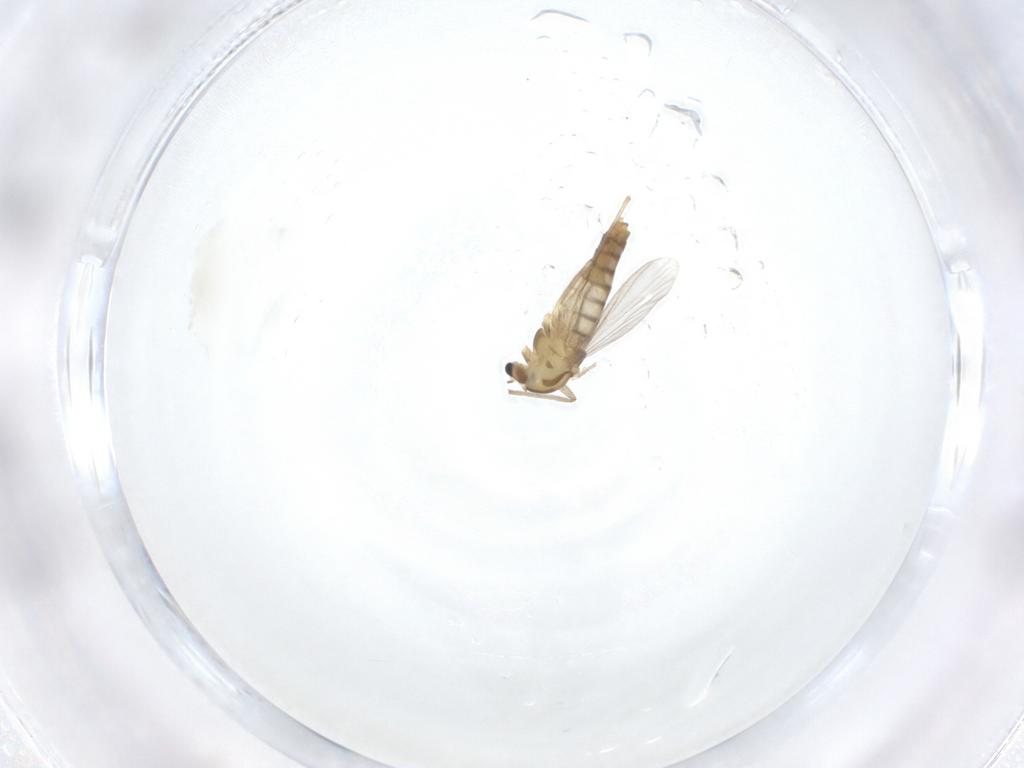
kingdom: Animalia
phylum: Arthropoda
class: Insecta
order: Diptera
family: Chironomidae
